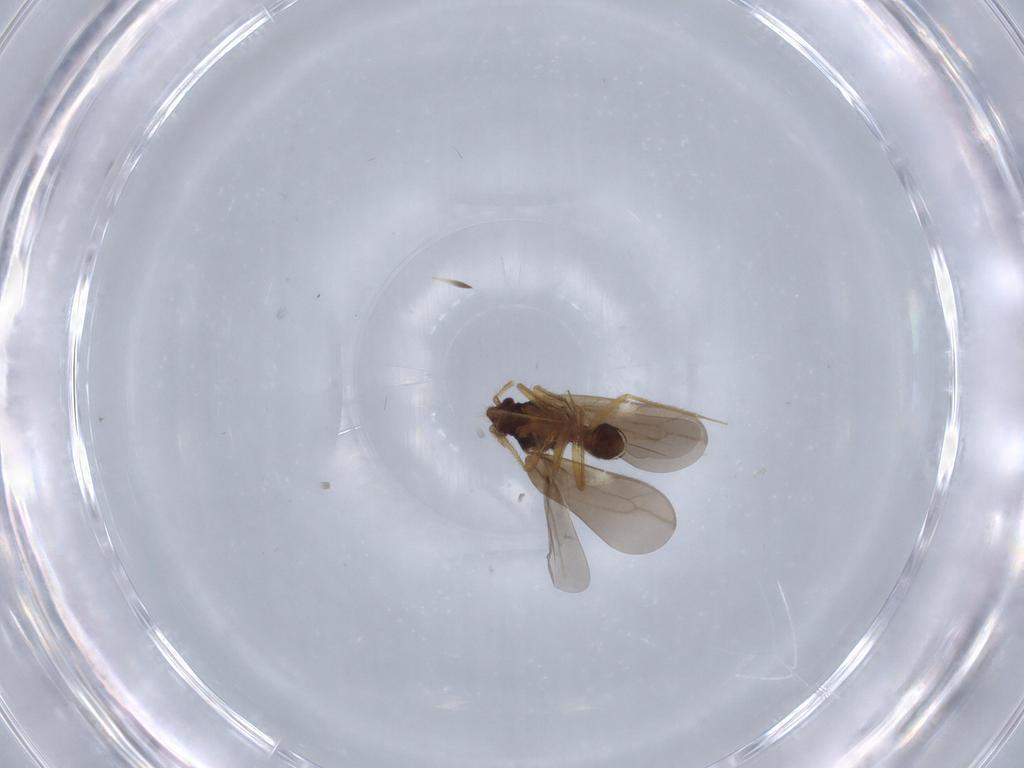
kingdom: Animalia
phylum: Arthropoda
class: Insecta
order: Hemiptera
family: Ceratocombidae
